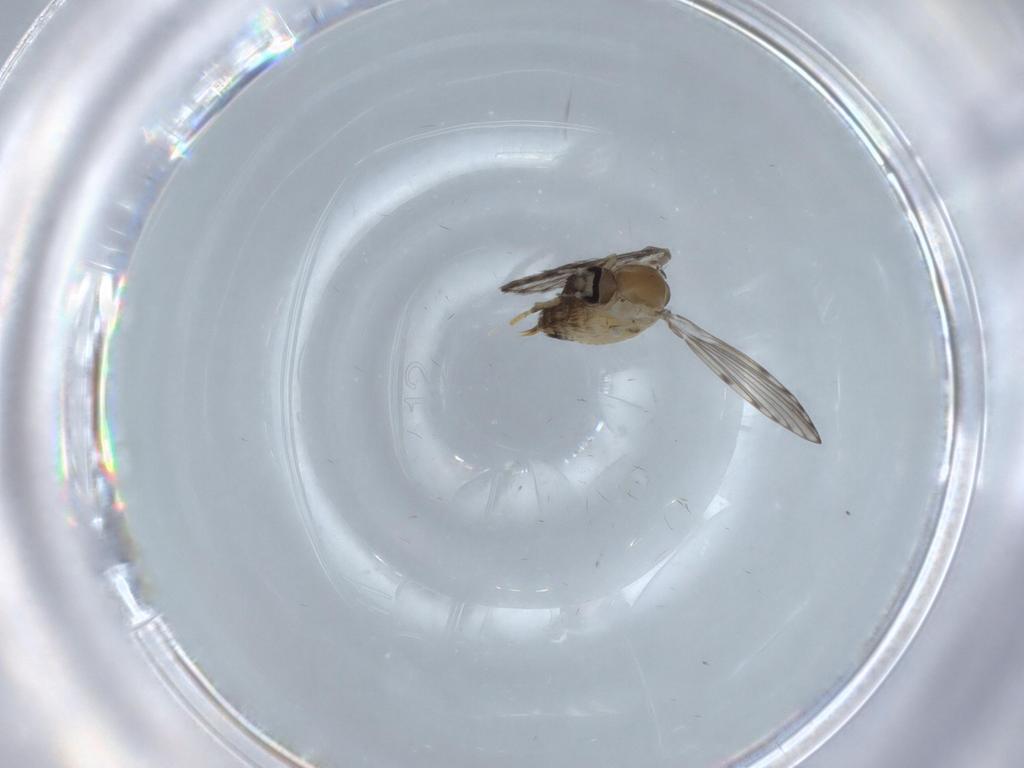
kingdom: Animalia
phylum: Arthropoda
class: Insecta
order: Diptera
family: Psychodidae
